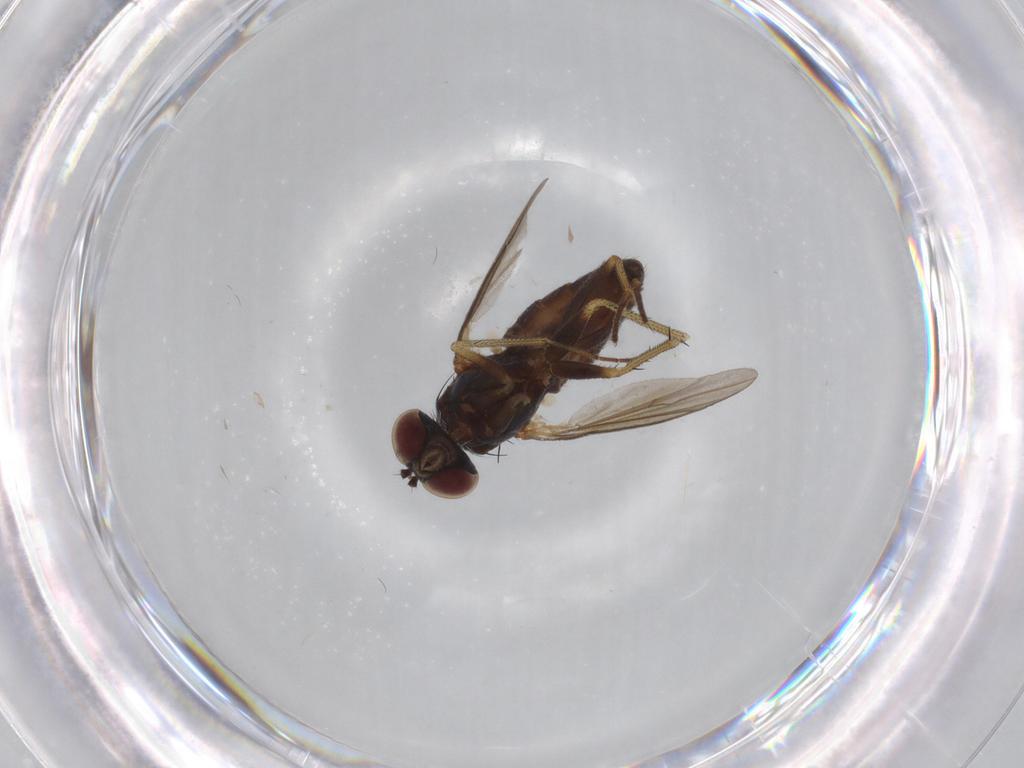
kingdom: Animalia
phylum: Arthropoda
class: Insecta
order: Diptera
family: Dolichopodidae
